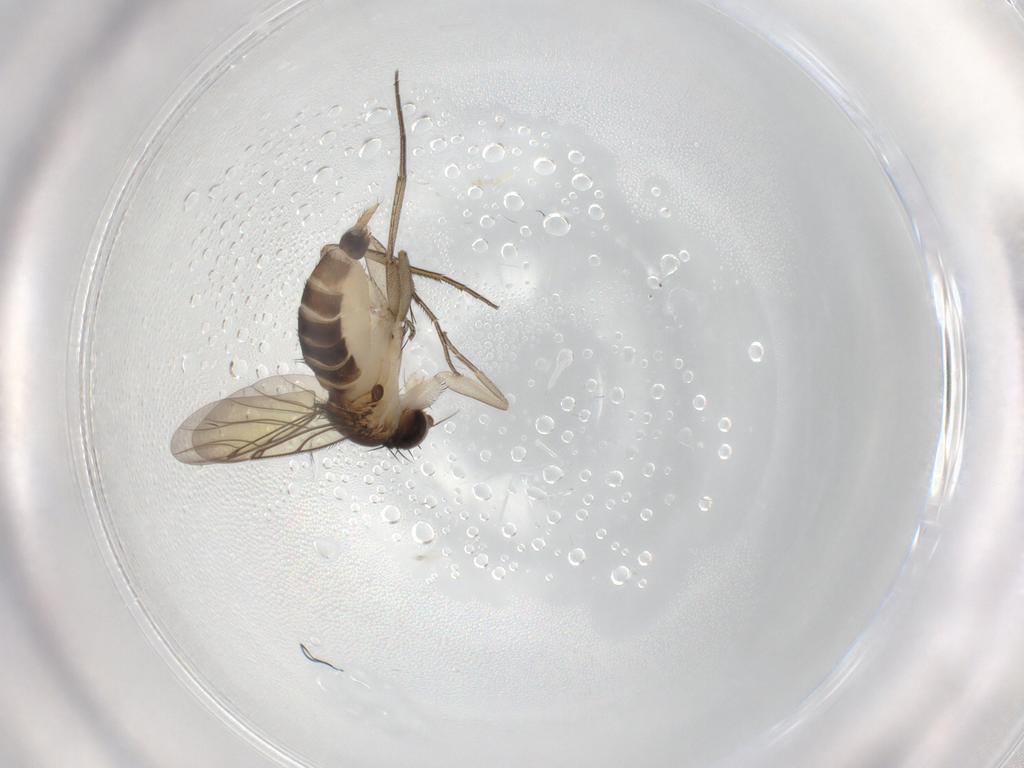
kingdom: Animalia
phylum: Arthropoda
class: Insecta
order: Diptera
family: Phoridae
